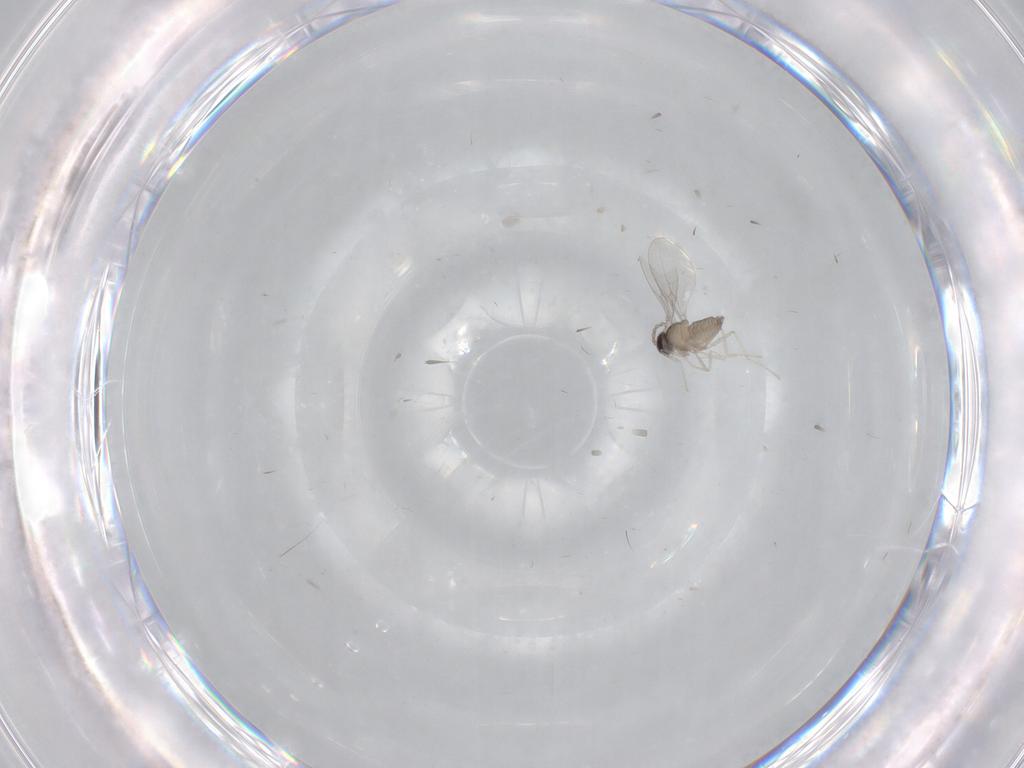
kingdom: Animalia
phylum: Arthropoda
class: Insecta
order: Diptera
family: Cecidomyiidae
